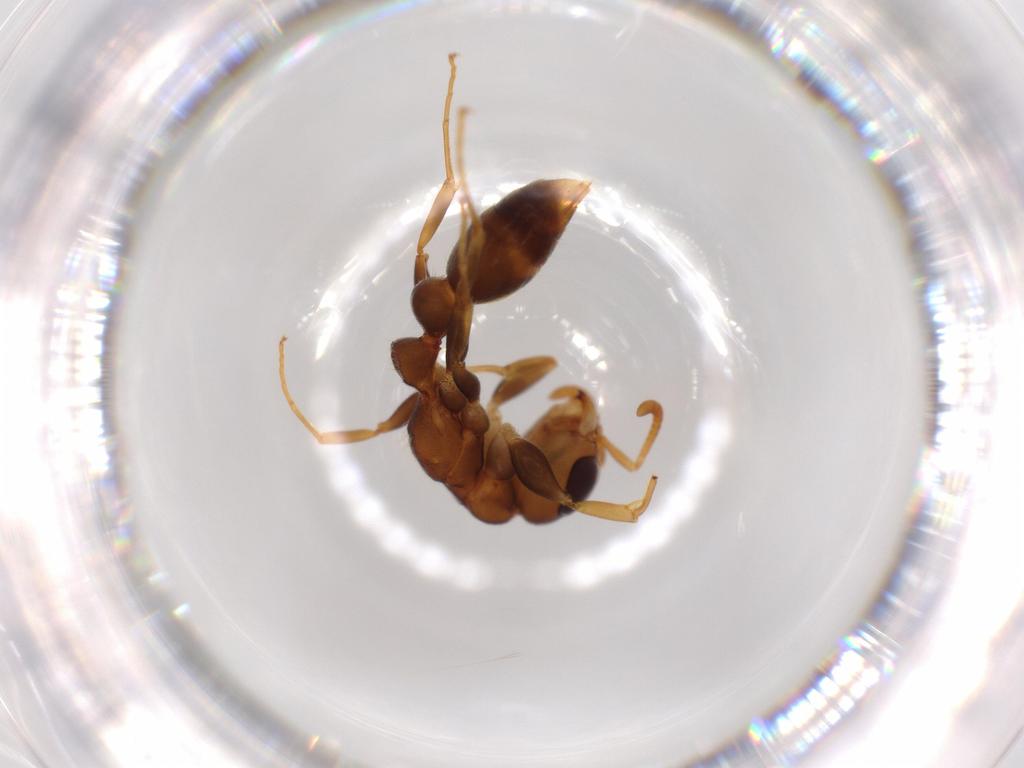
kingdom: Animalia
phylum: Arthropoda
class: Insecta
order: Hymenoptera
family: Formicidae
